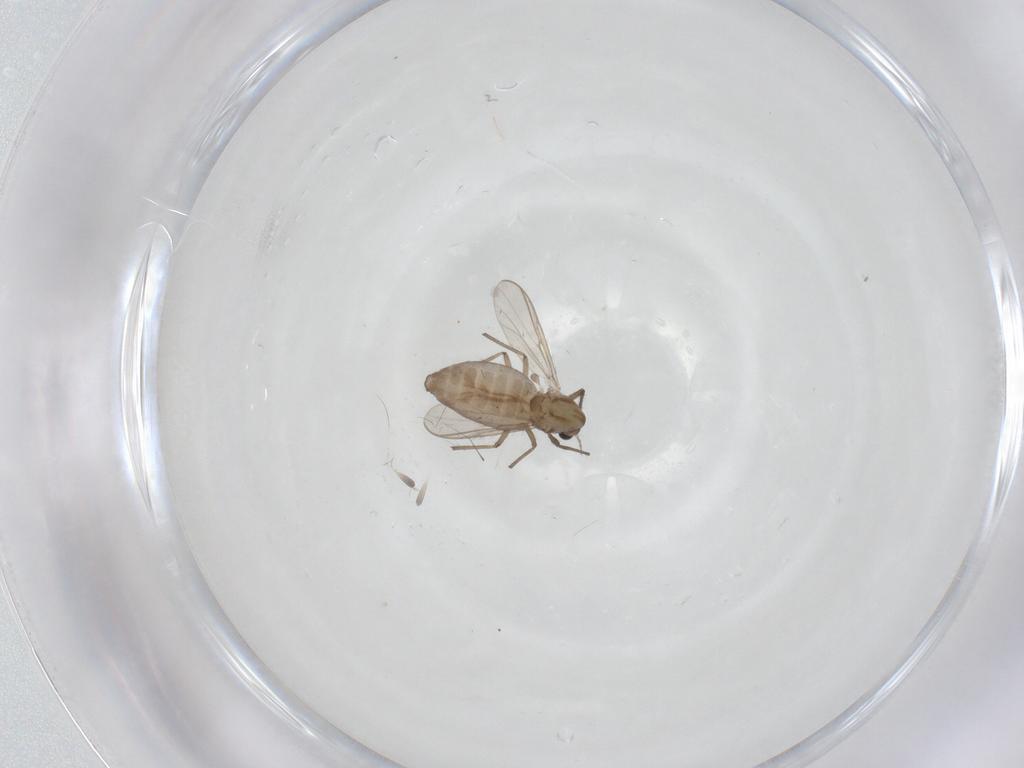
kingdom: Animalia
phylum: Arthropoda
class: Insecta
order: Diptera
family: Chironomidae
